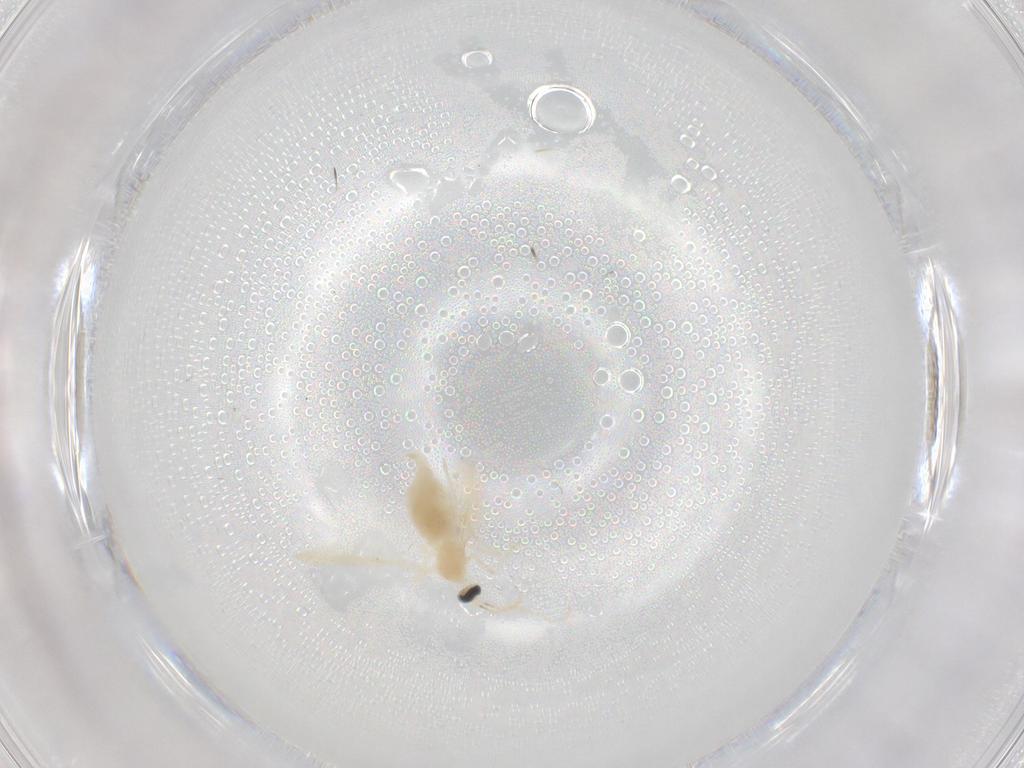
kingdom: Animalia
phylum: Arthropoda
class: Insecta
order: Diptera
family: Cecidomyiidae
